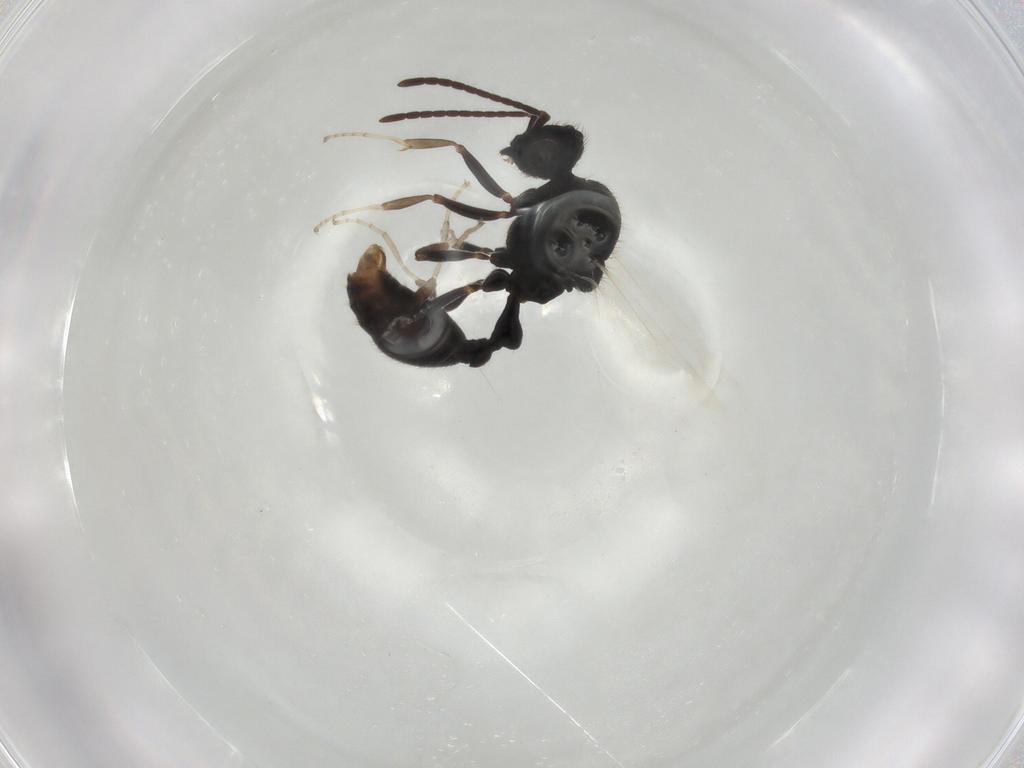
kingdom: Animalia
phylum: Arthropoda
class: Insecta
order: Hymenoptera
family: Formicidae
